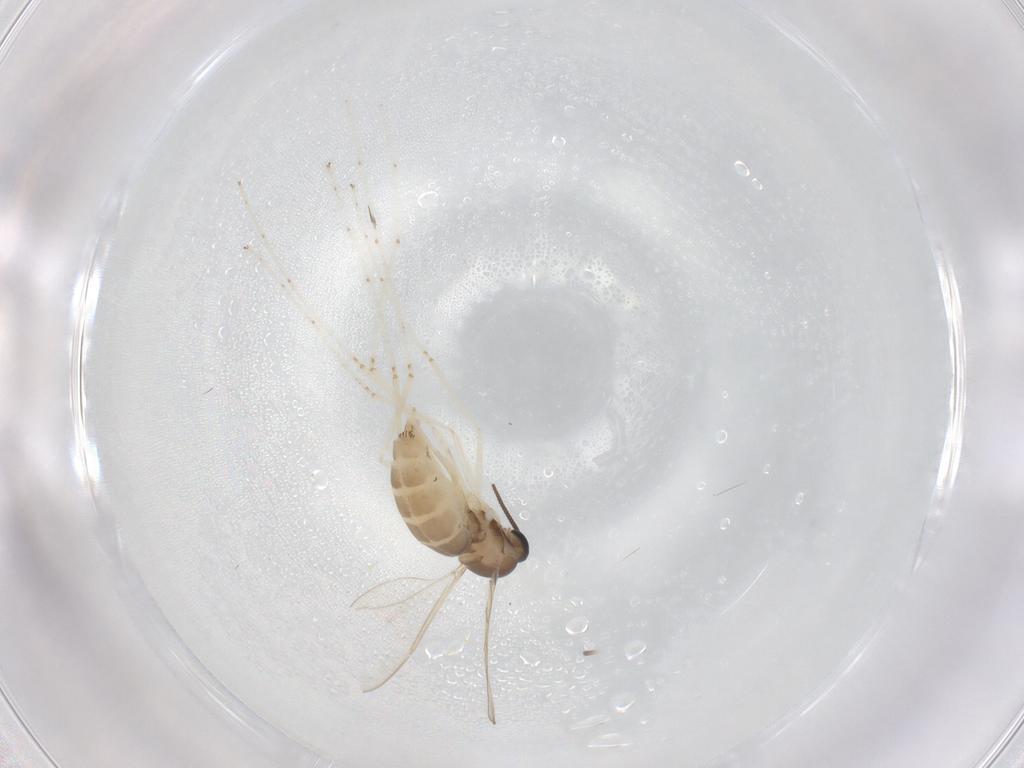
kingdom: Animalia
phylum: Arthropoda
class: Insecta
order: Diptera
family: Cecidomyiidae
